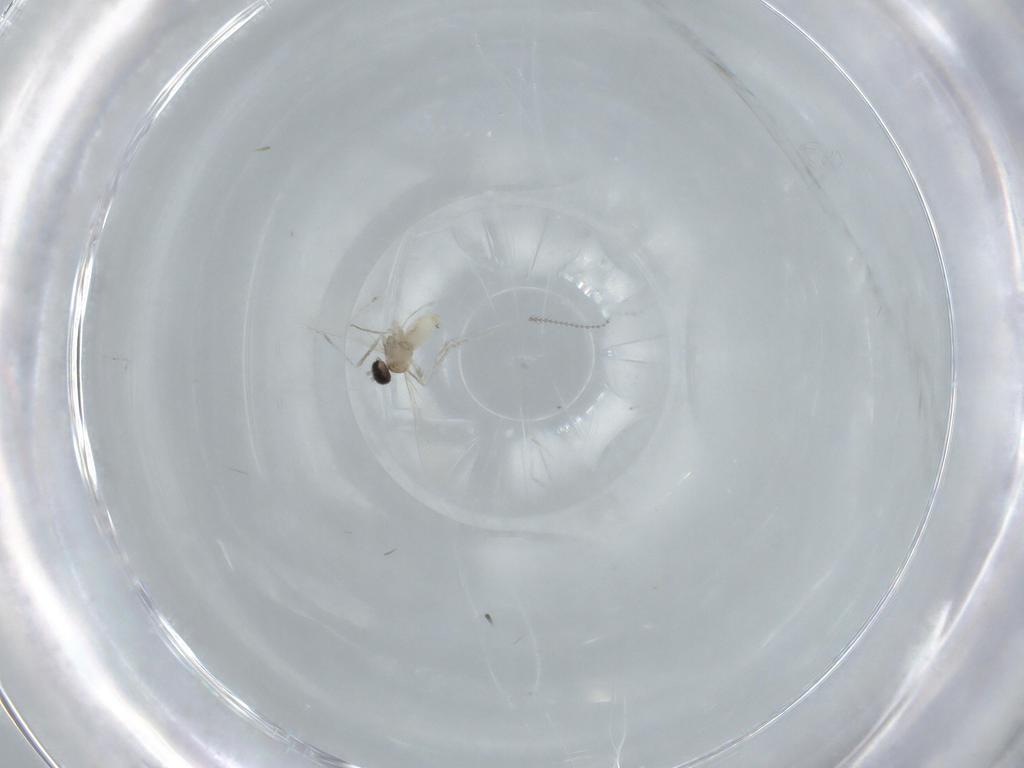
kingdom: Animalia
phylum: Arthropoda
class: Insecta
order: Diptera
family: Cecidomyiidae
